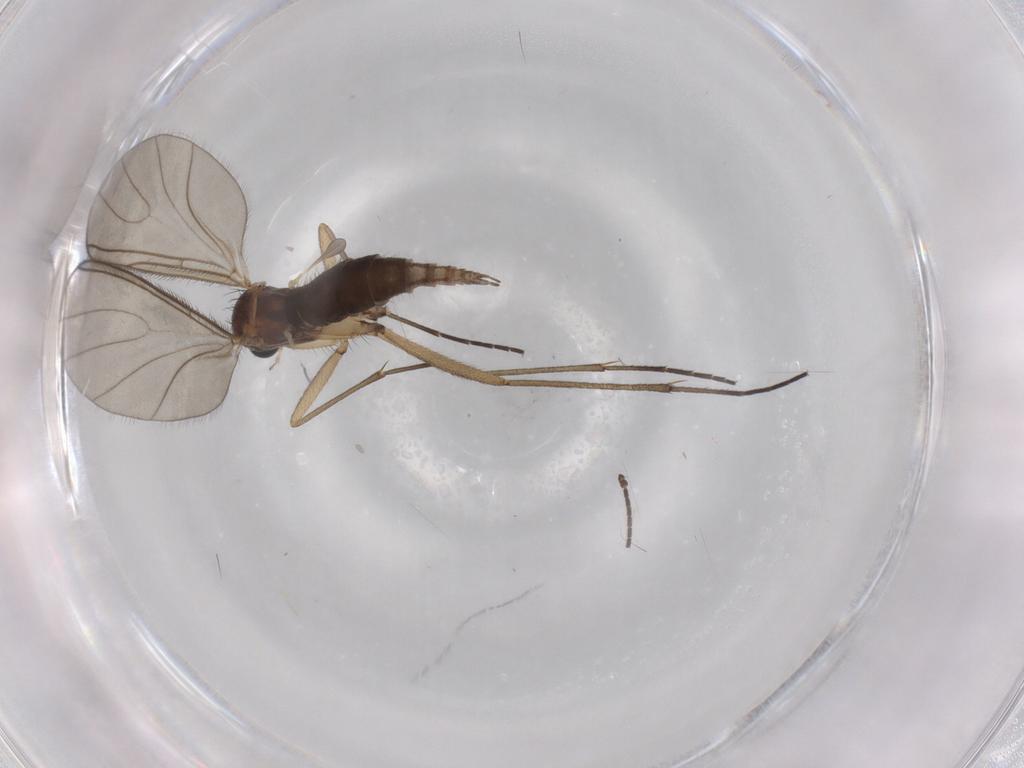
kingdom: Animalia
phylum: Arthropoda
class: Insecta
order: Diptera
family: Sciaridae
